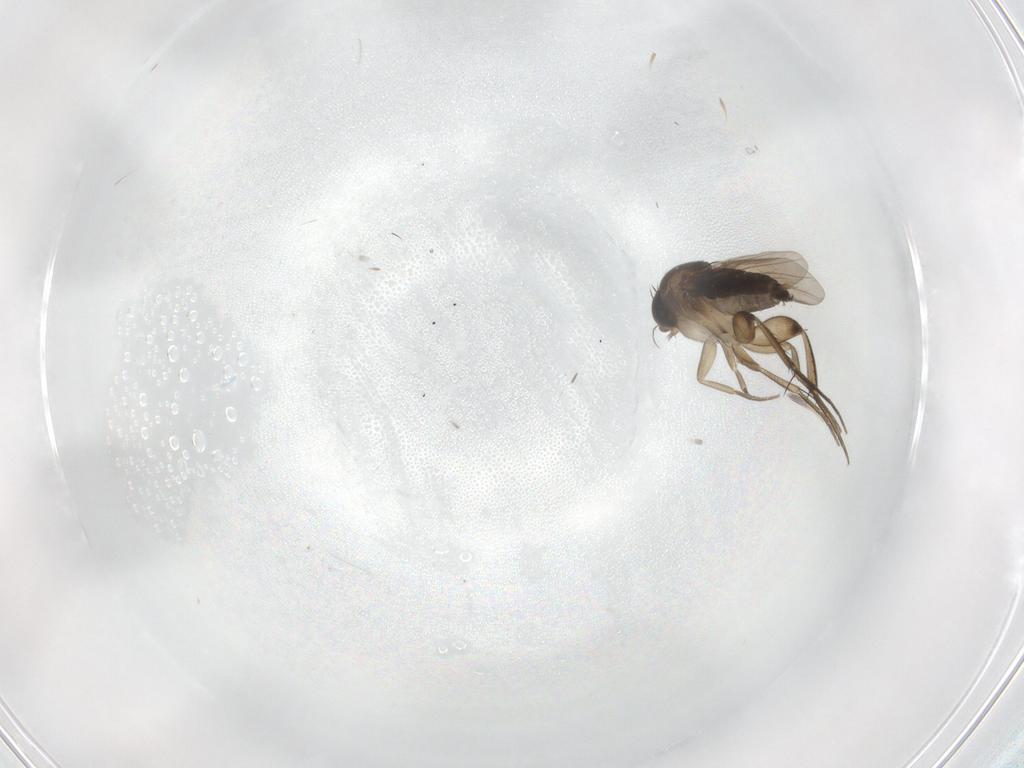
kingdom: Animalia
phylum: Arthropoda
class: Insecta
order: Diptera
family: Phoridae
